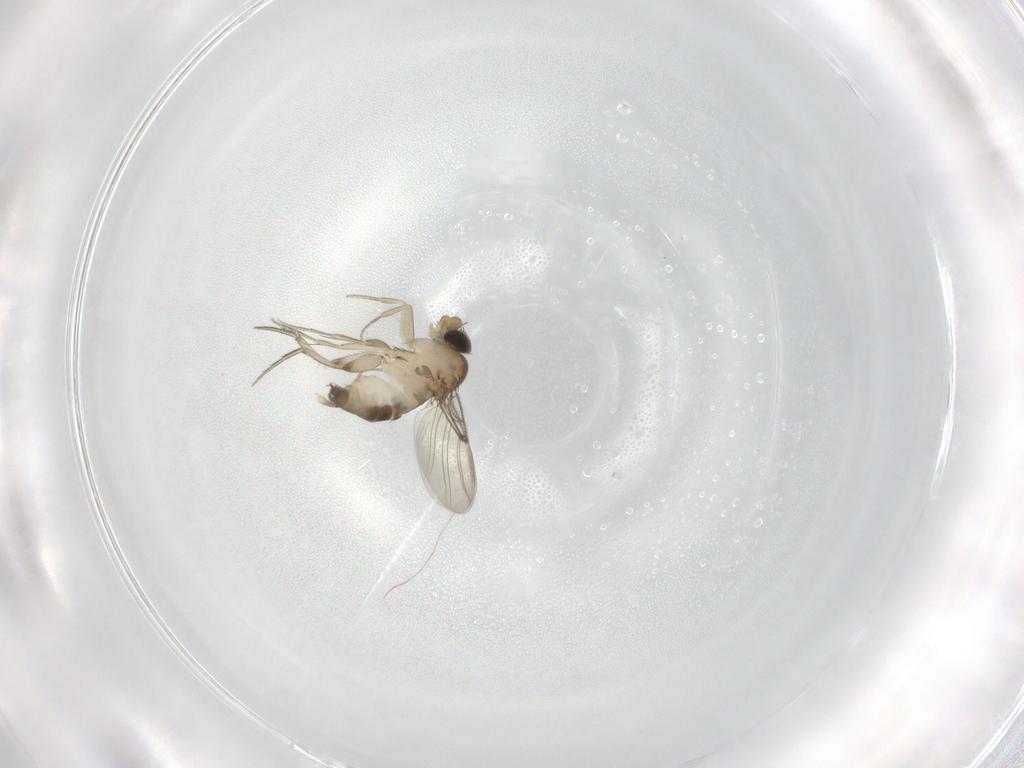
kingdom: Animalia
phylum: Arthropoda
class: Insecta
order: Diptera
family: Phoridae
